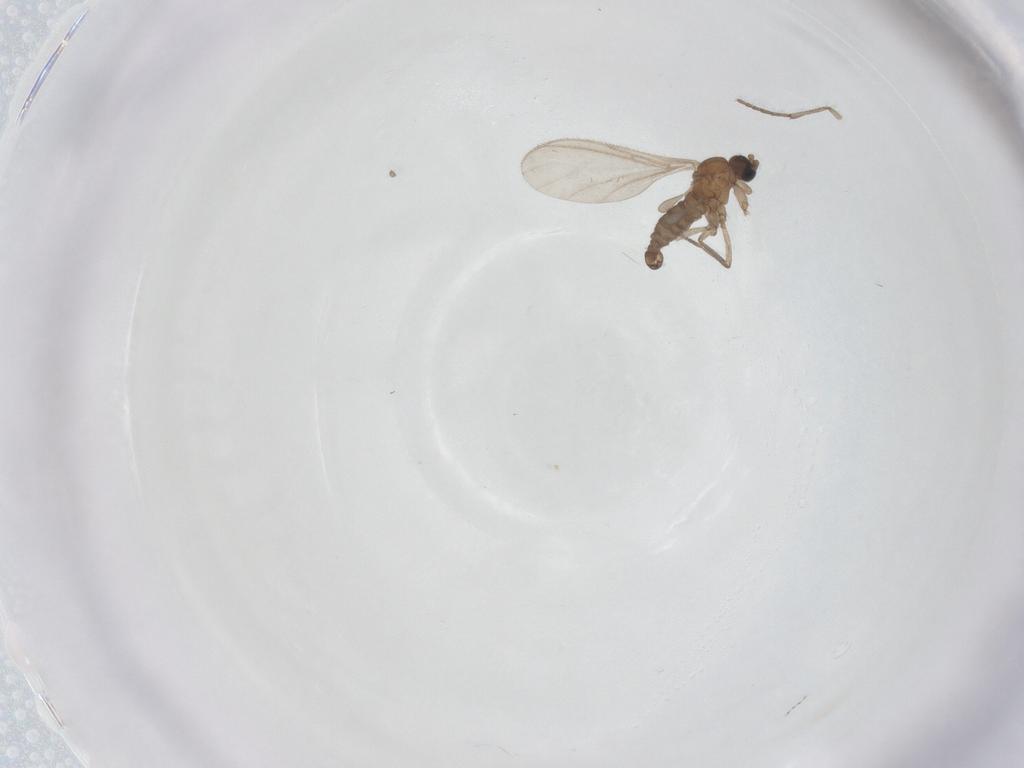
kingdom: Animalia
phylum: Arthropoda
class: Insecta
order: Diptera
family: Sciaridae
